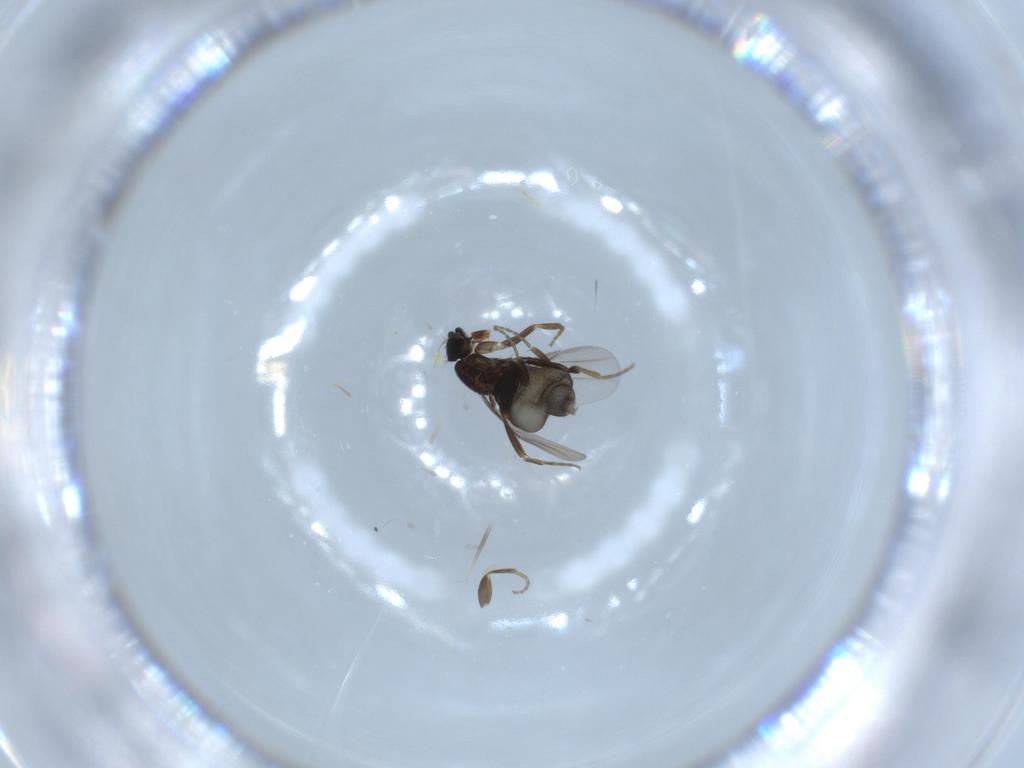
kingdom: Animalia
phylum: Arthropoda
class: Insecta
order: Diptera
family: Phoridae
